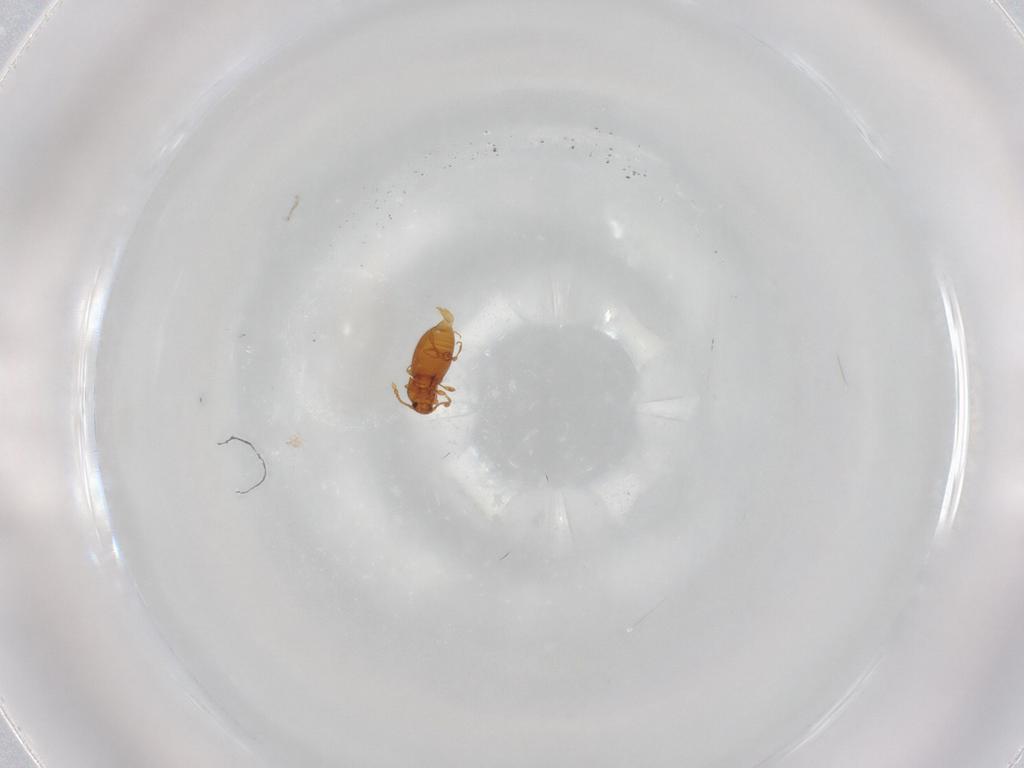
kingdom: Animalia
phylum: Arthropoda
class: Insecta
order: Coleoptera
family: Staphylinidae
